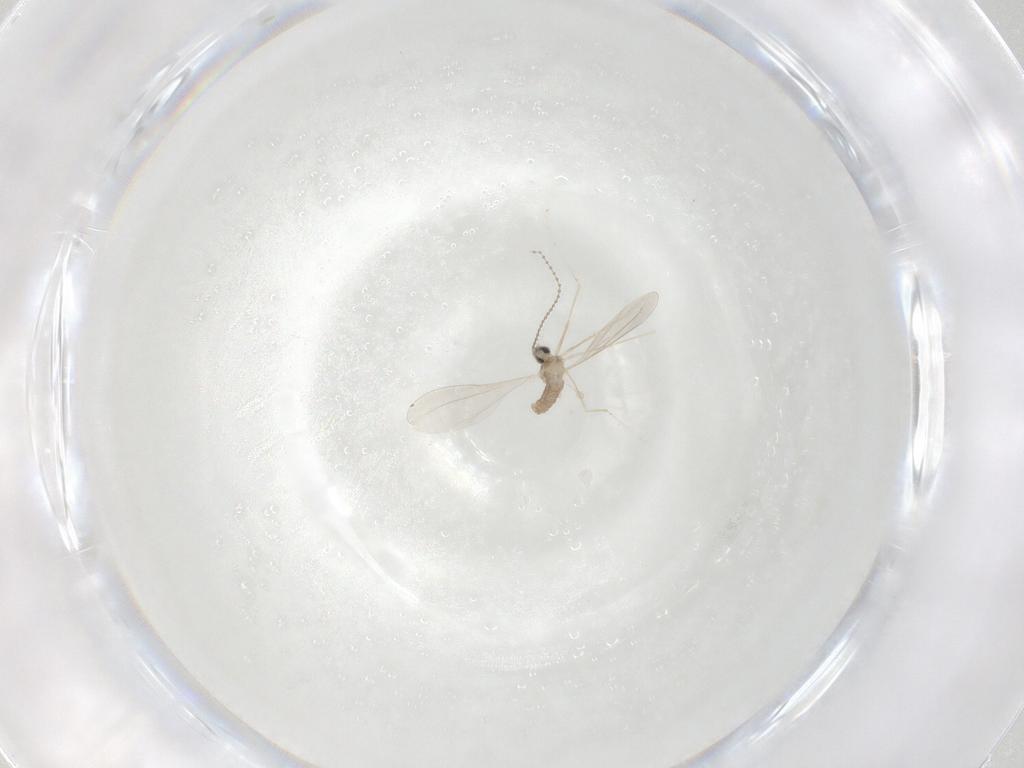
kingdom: Animalia
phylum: Arthropoda
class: Insecta
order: Diptera
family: Cecidomyiidae
